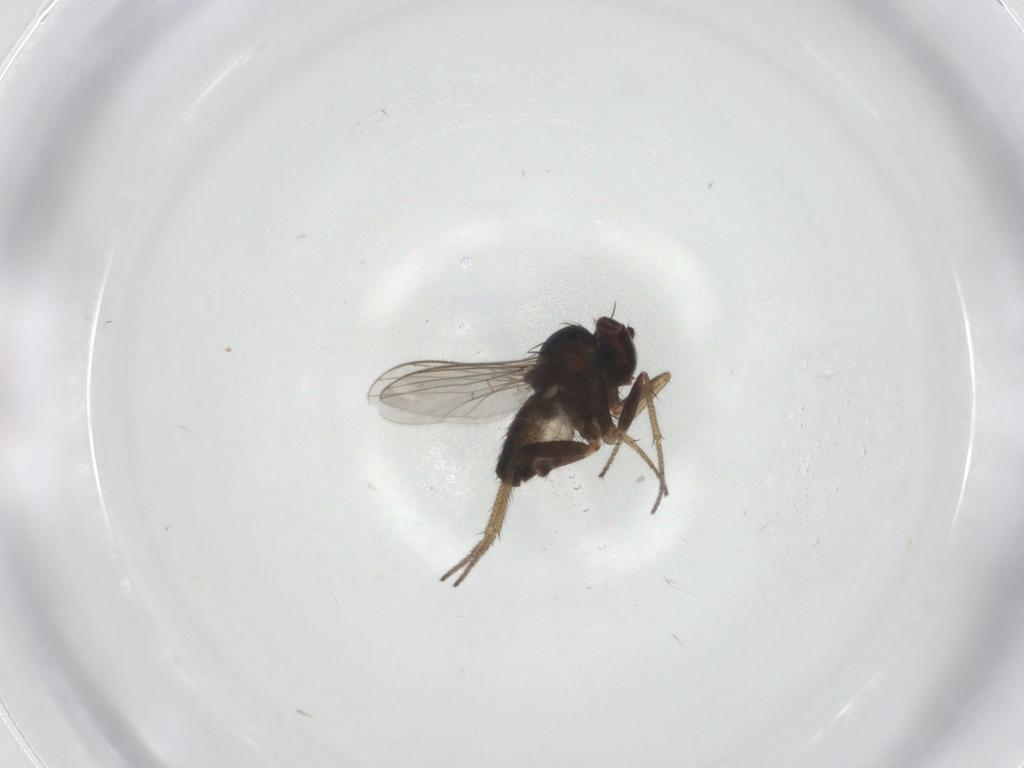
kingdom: Animalia
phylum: Arthropoda
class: Insecta
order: Diptera
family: Dolichopodidae
